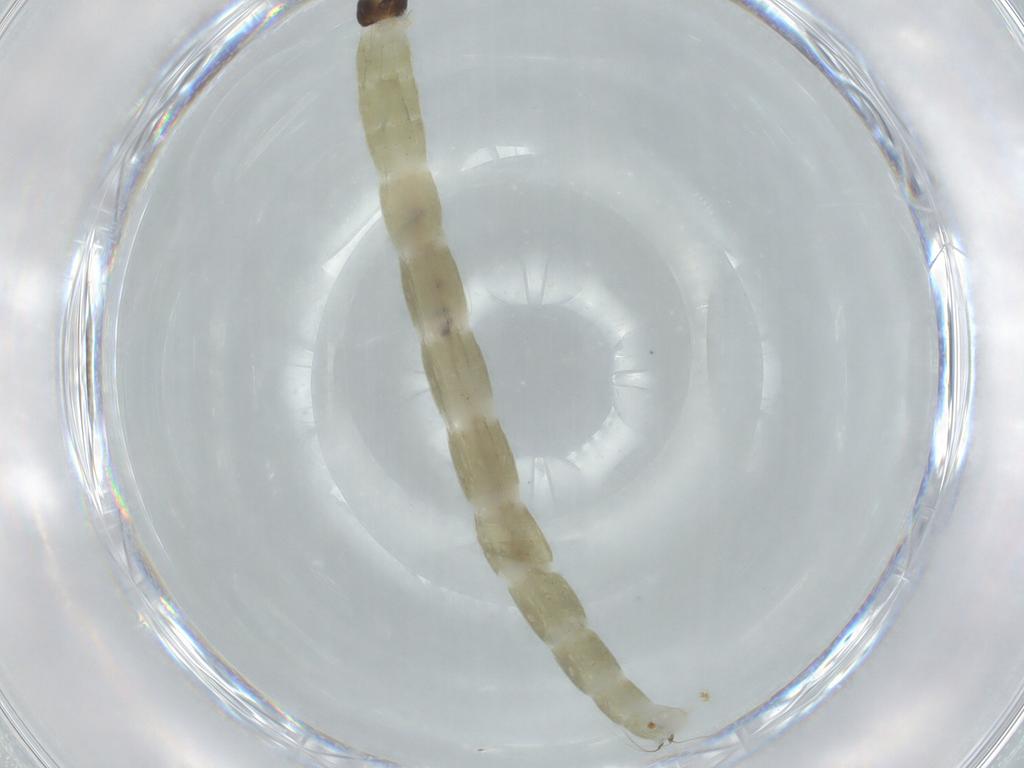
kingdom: Animalia
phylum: Arthropoda
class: Insecta
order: Diptera
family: Chironomidae
